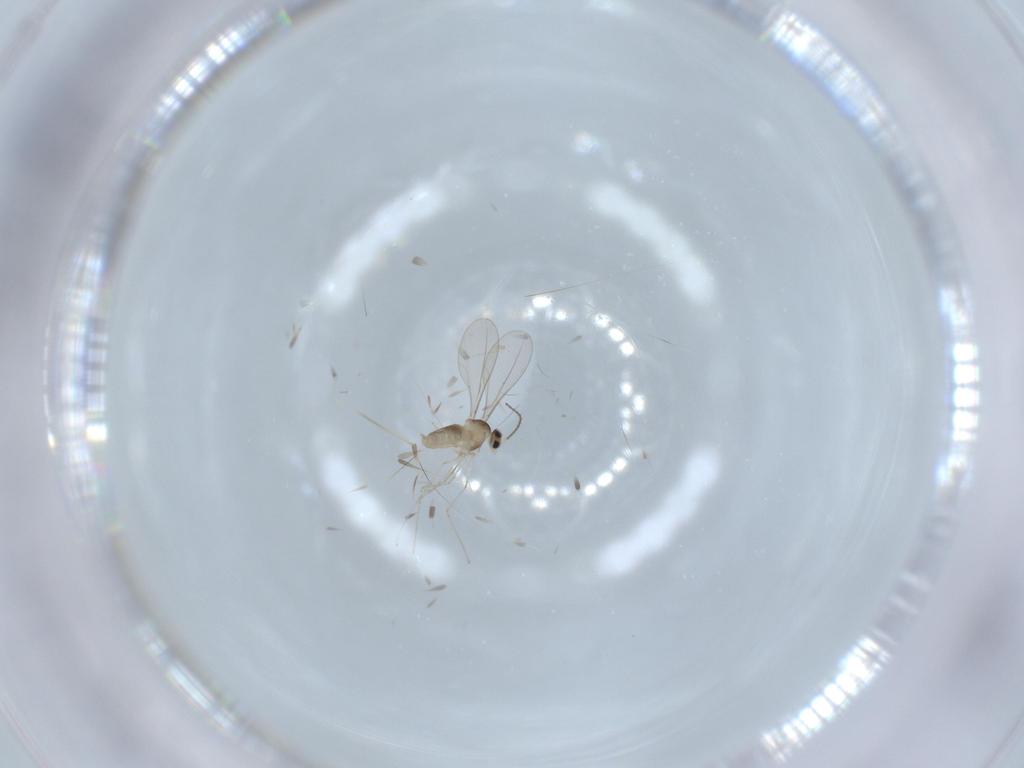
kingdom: Animalia
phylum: Arthropoda
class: Insecta
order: Diptera
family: Cecidomyiidae
